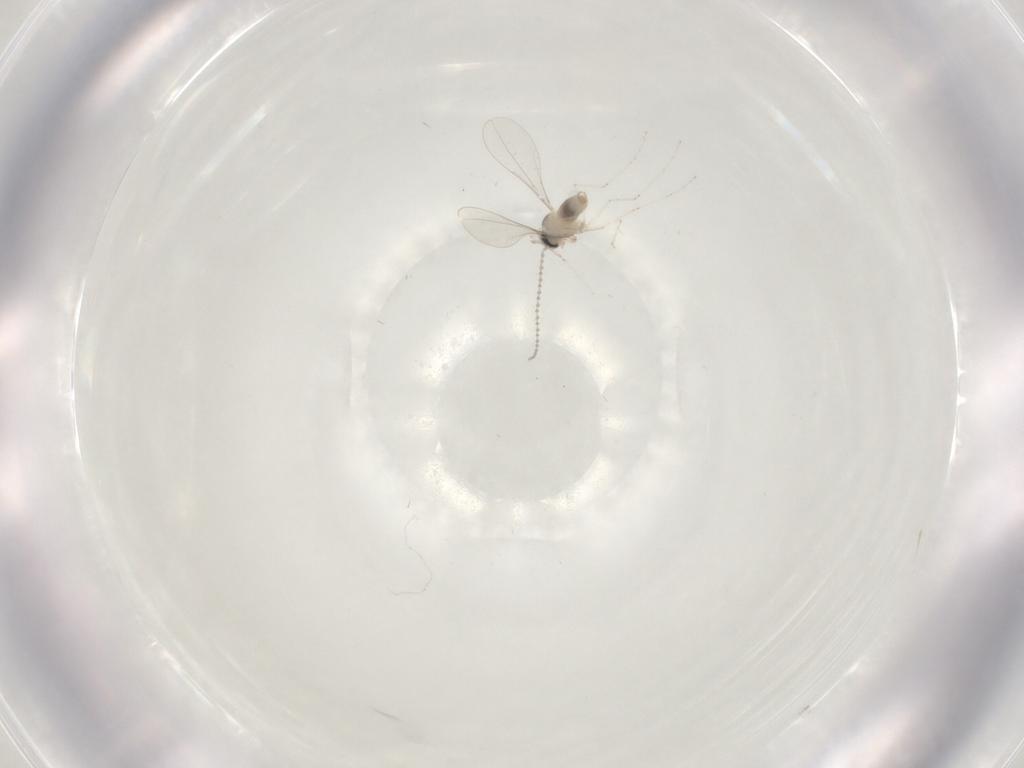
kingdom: Animalia
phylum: Arthropoda
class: Insecta
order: Diptera
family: Cecidomyiidae
